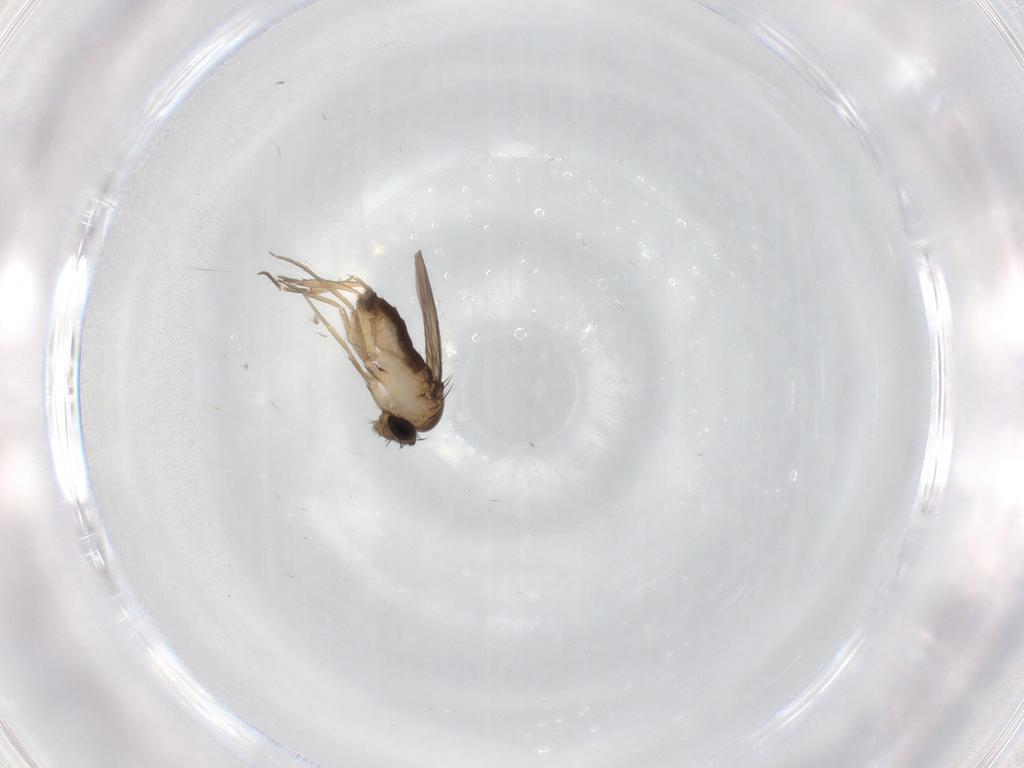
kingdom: Animalia
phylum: Arthropoda
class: Insecta
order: Diptera
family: Phoridae
